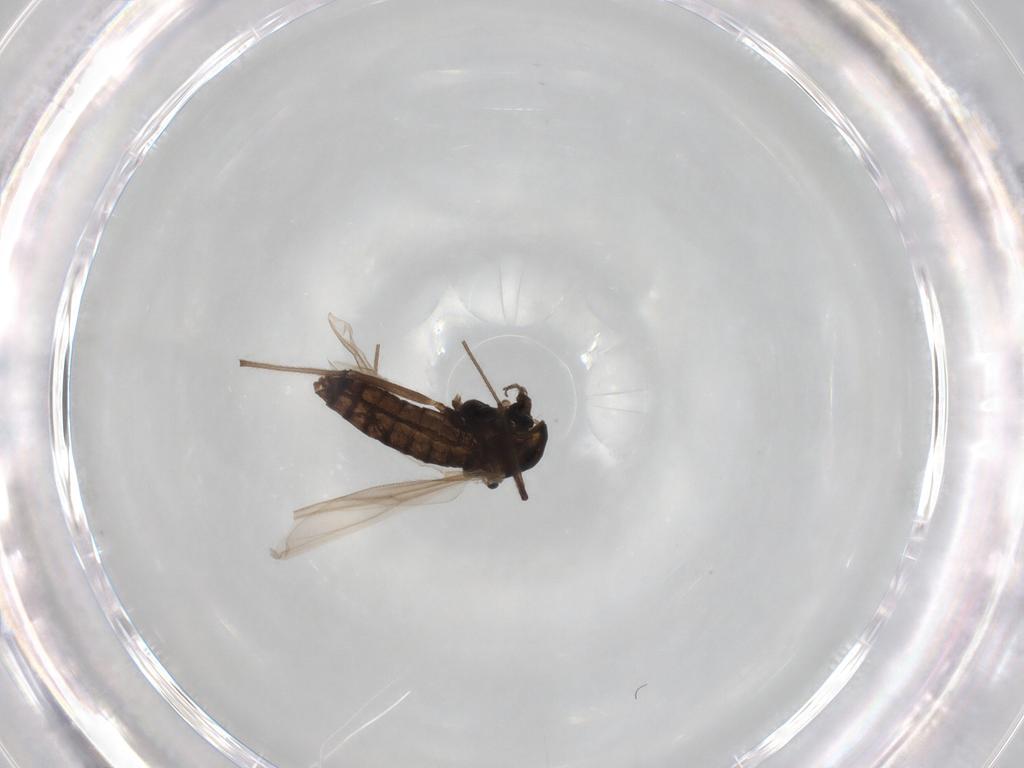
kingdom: Animalia
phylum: Arthropoda
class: Insecta
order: Diptera
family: Chironomidae
